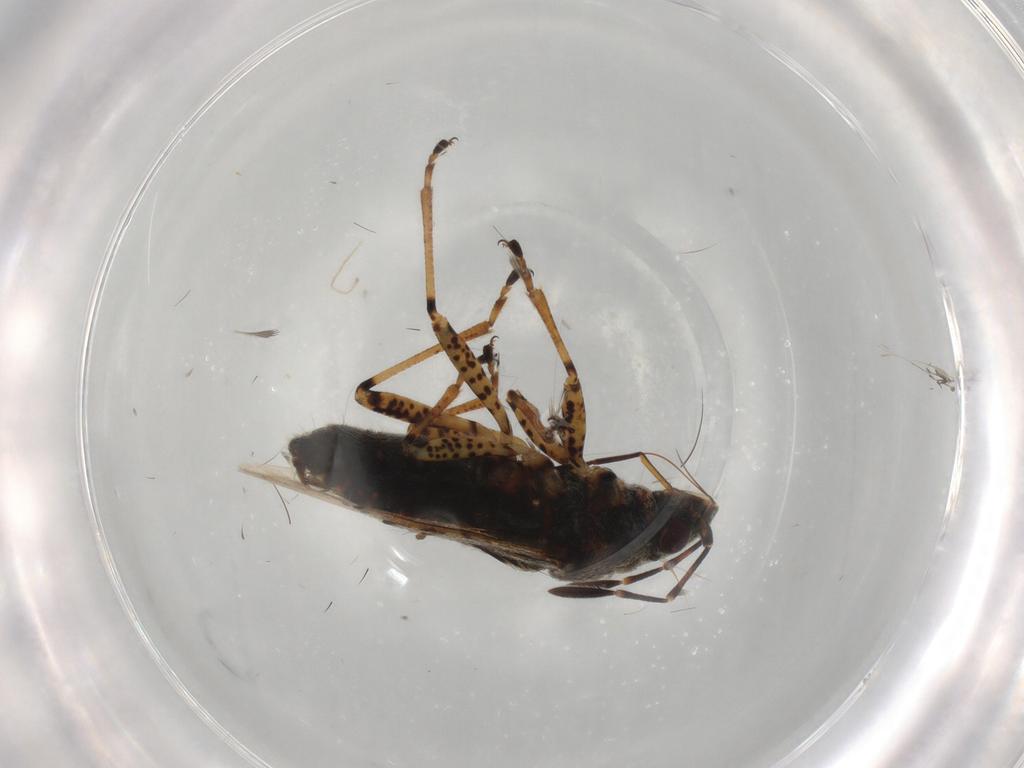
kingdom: Animalia
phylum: Arthropoda
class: Insecta
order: Hemiptera
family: Lygaeidae
